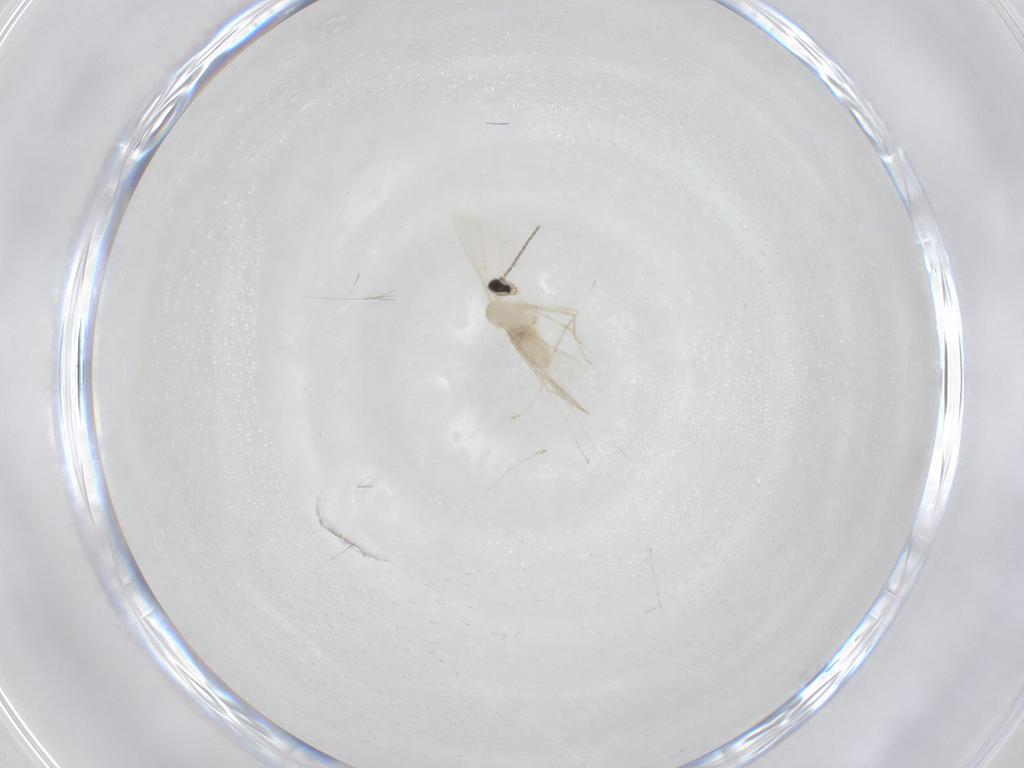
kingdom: Animalia
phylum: Arthropoda
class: Insecta
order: Diptera
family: Cecidomyiidae
